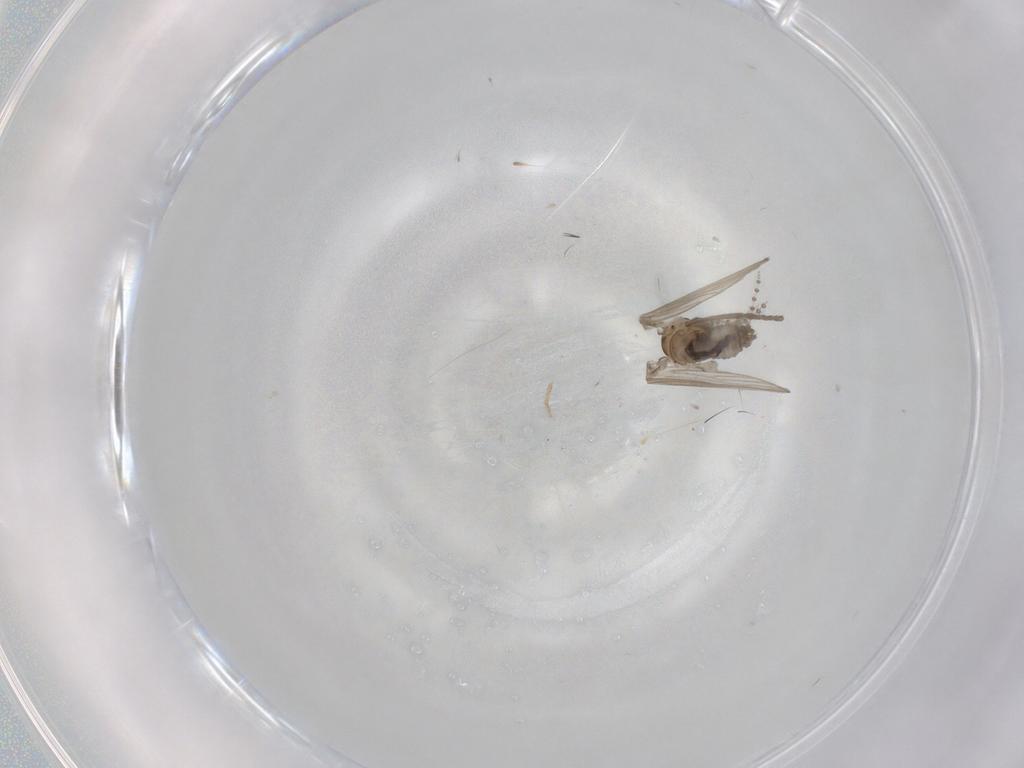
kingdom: Animalia
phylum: Arthropoda
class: Insecta
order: Diptera
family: Psychodidae
